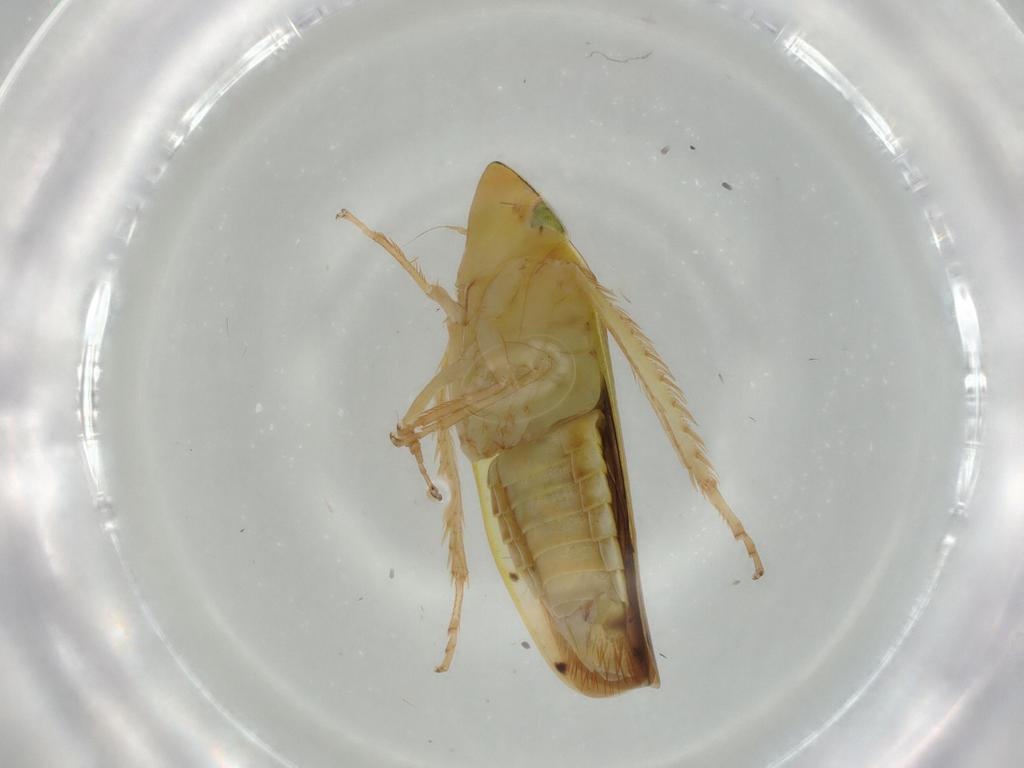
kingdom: Animalia
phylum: Arthropoda
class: Insecta
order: Hemiptera
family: Cicadellidae
